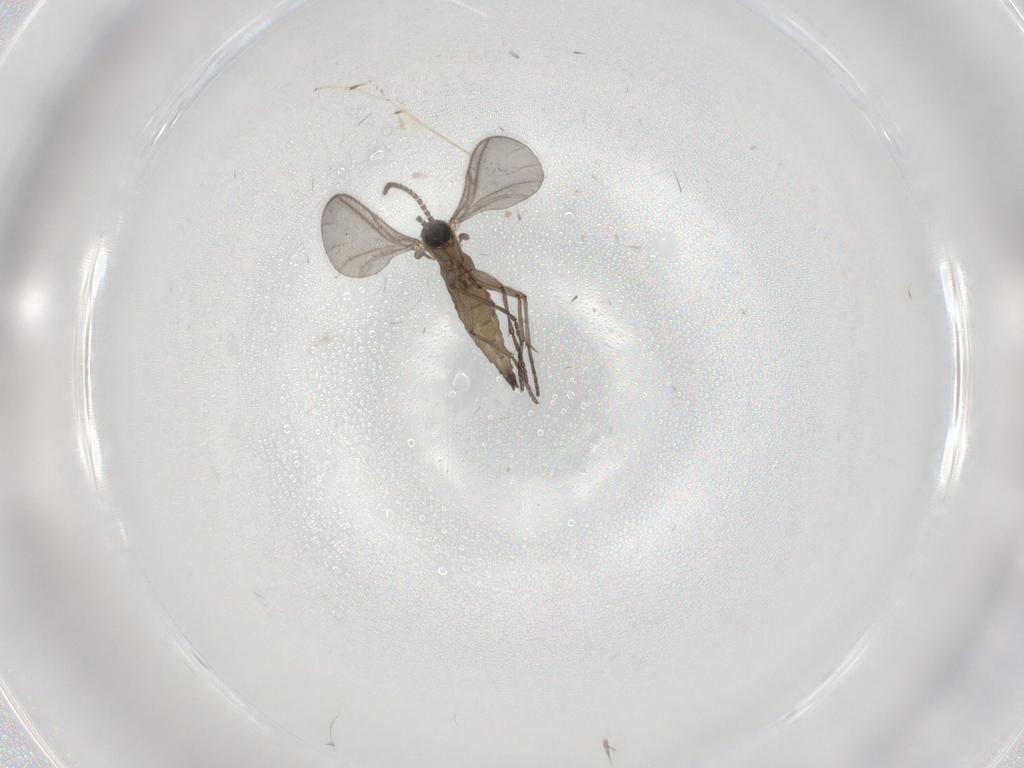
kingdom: Animalia
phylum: Arthropoda
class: Insecta
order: Diptera
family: Sciaridae
